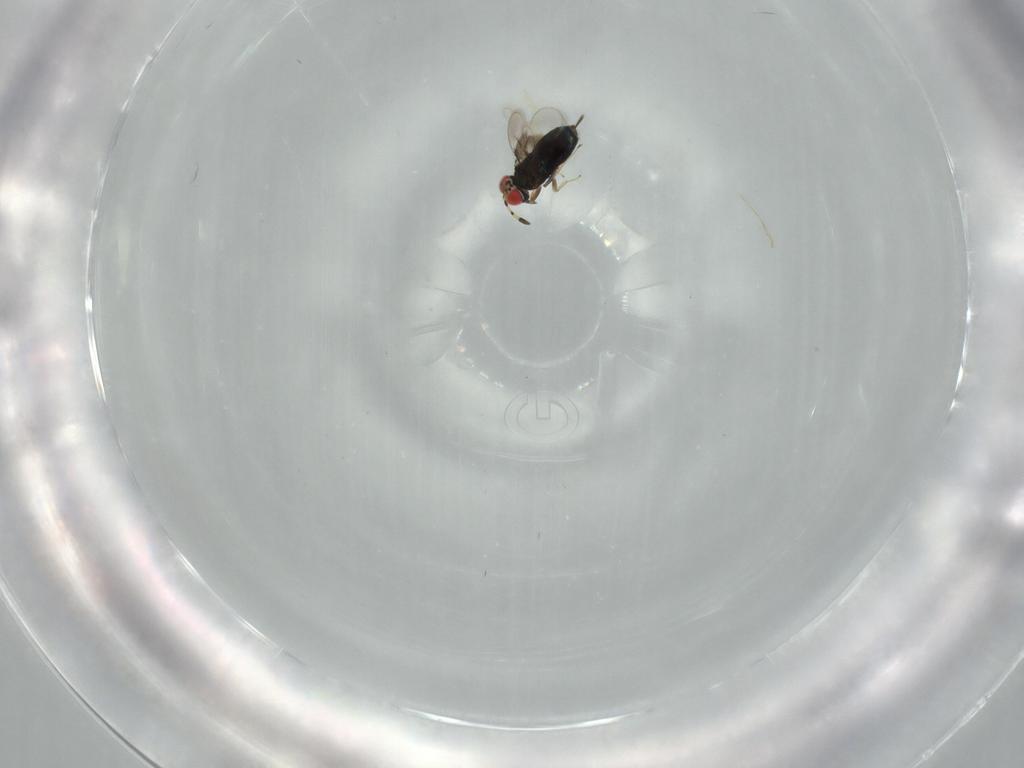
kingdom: Animalia
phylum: Arthropoda
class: Insecta
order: Hymenoptera
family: Azotidae
